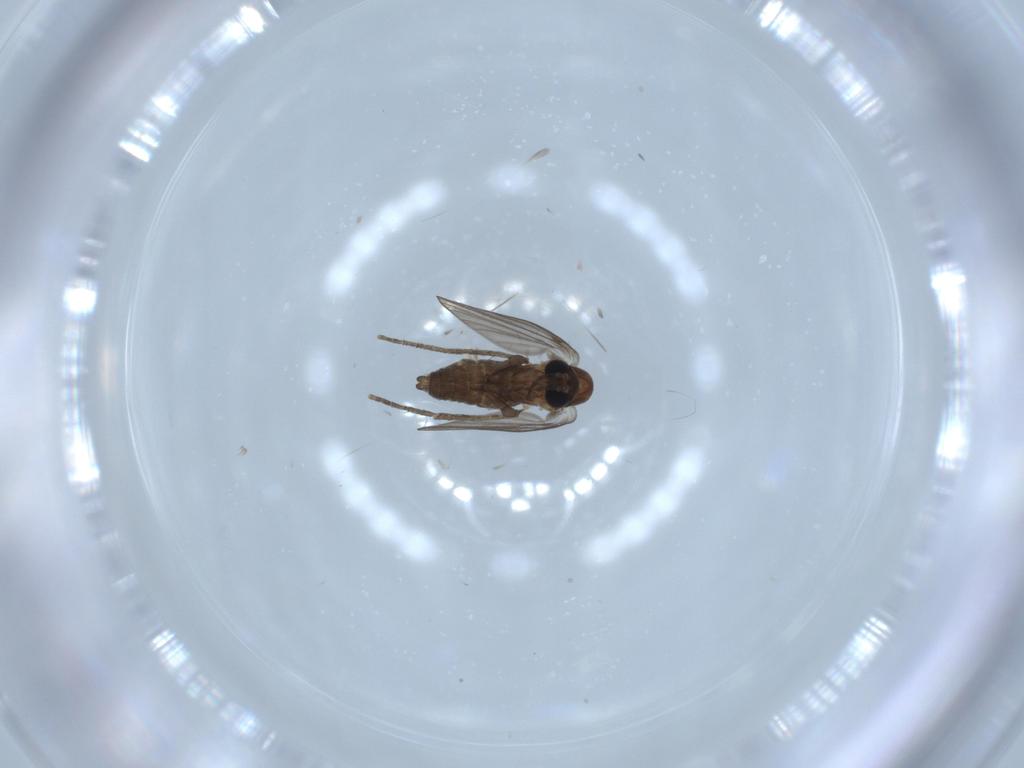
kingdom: Animalia
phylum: Arthropoda
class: Insecta
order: Diptera
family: Psychodidae
